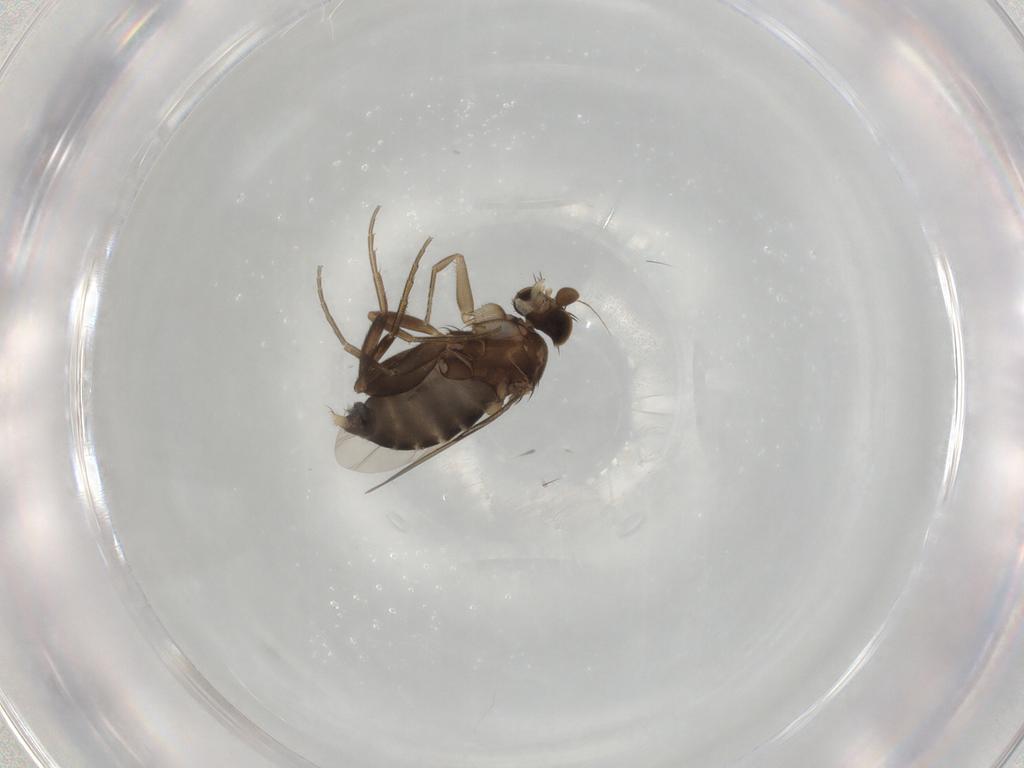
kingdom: Animalia
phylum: Arthropoda
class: Insecta
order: Diptera
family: Phoridae
